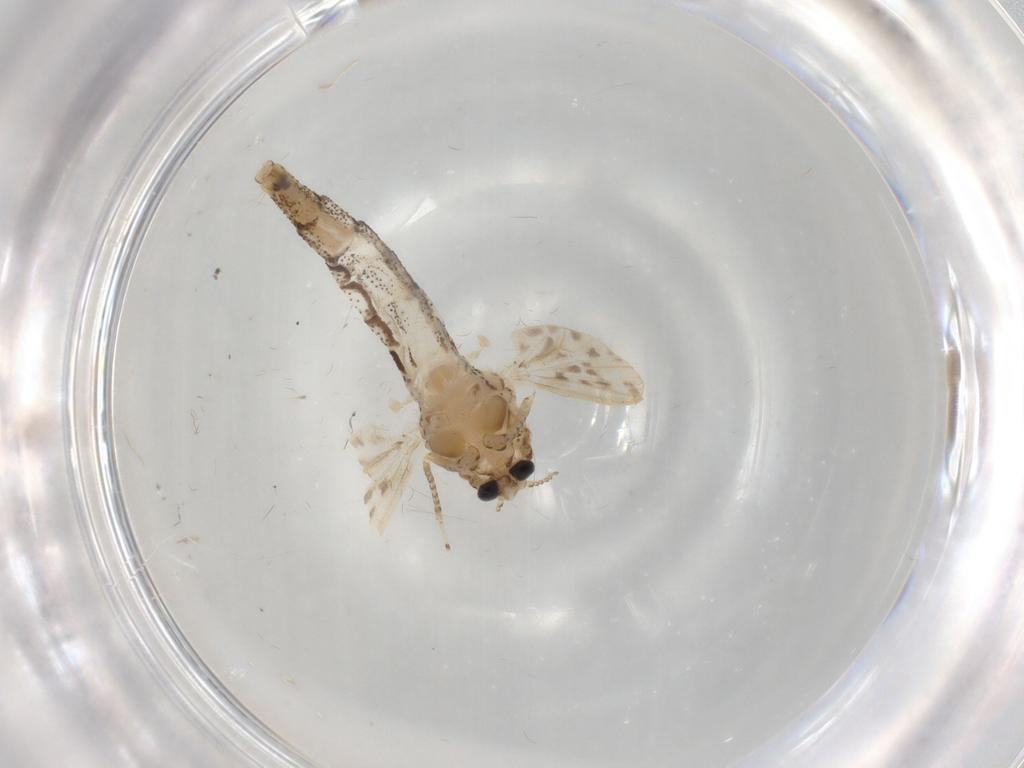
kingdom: Animalia
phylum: Arthropoda
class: Insecta
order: Diptera
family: Chaoboridae
